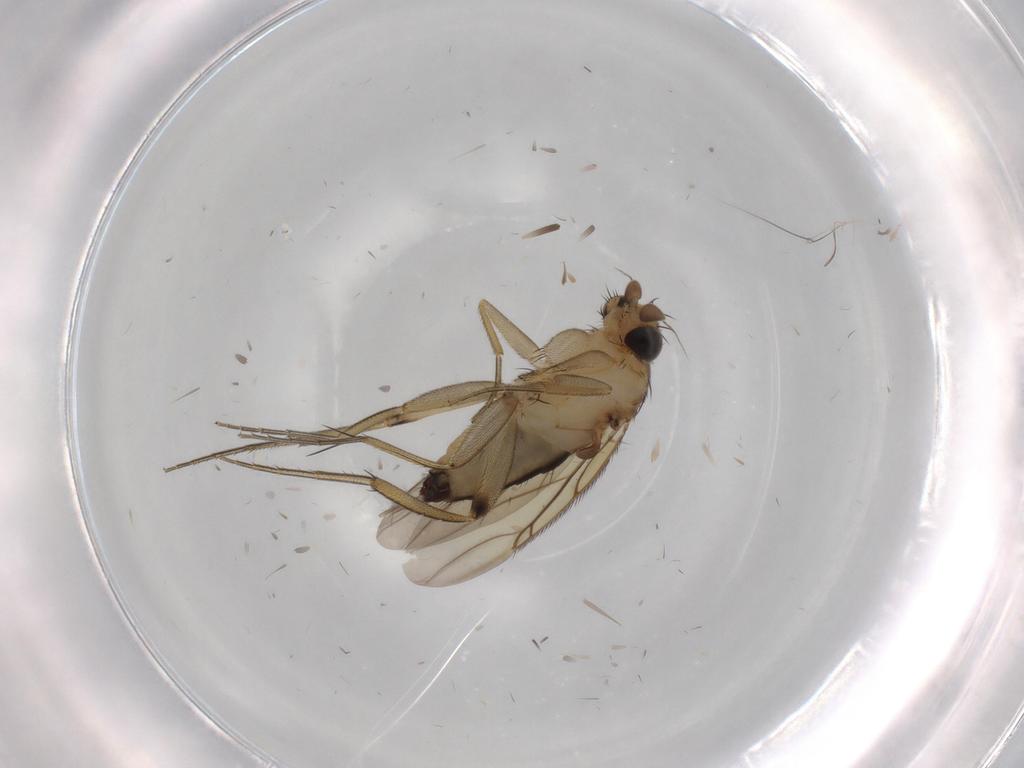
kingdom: Animalia
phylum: Arthropoda
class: Insecta
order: Diptera
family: Phoridae
